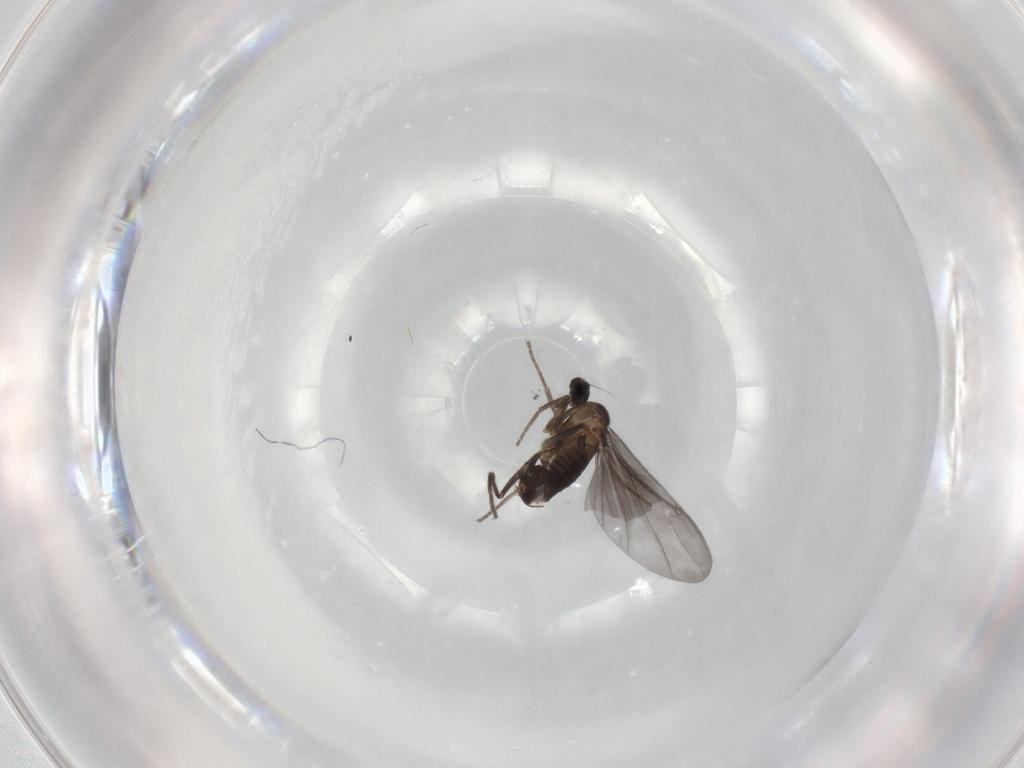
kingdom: Animalia
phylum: Arthropoda
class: Insecta
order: Diptera
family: Phoridae
